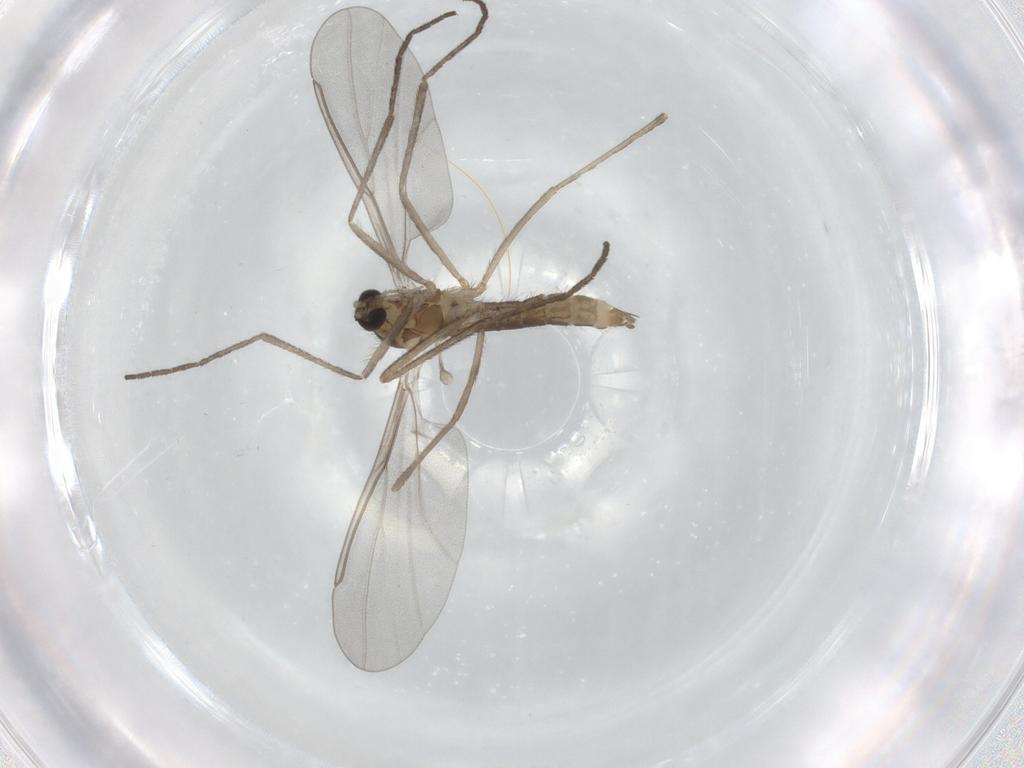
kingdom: Animalia
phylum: Arthropoda
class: Insecta
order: Diptera
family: Cecidomyiidae
